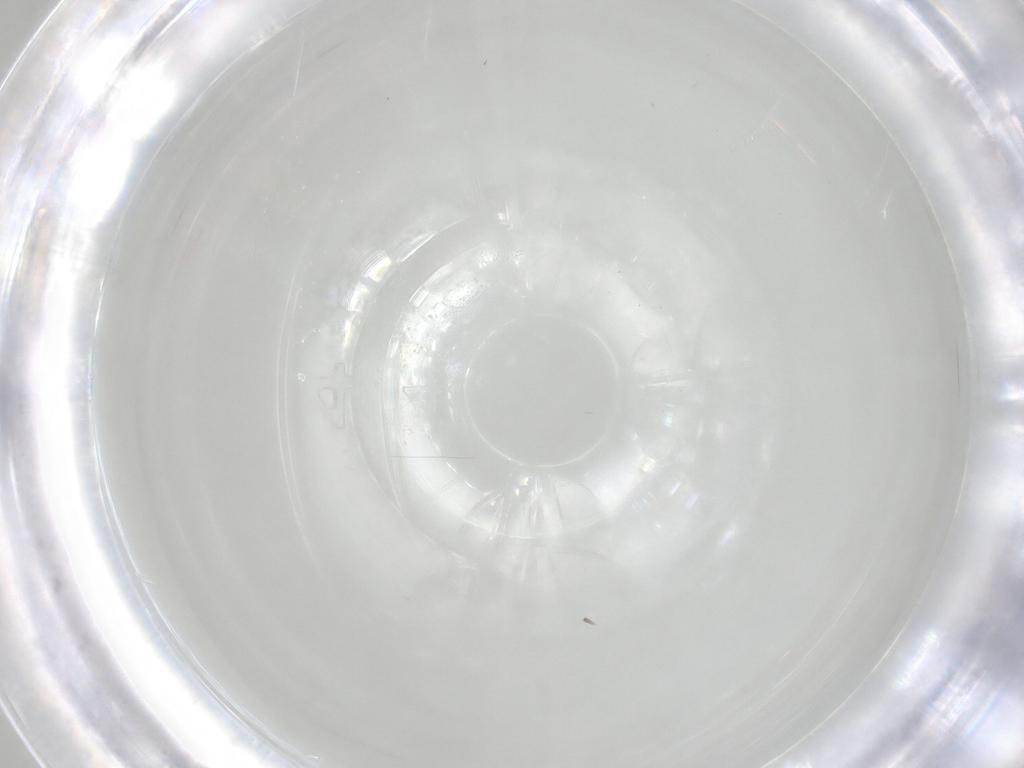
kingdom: Animalia
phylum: Arthropoda
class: Insecta
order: Diptera
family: Cecidomyiidae
